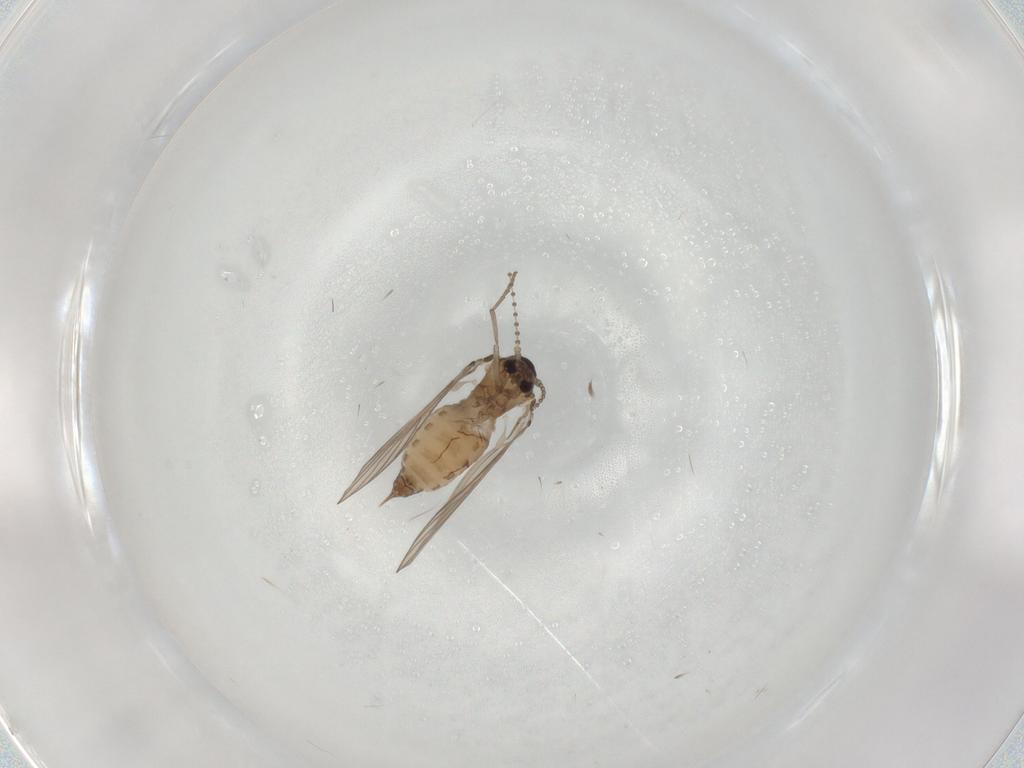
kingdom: Animalia
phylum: Arthropoda
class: Insecta
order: Diptera
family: Psychodidae
